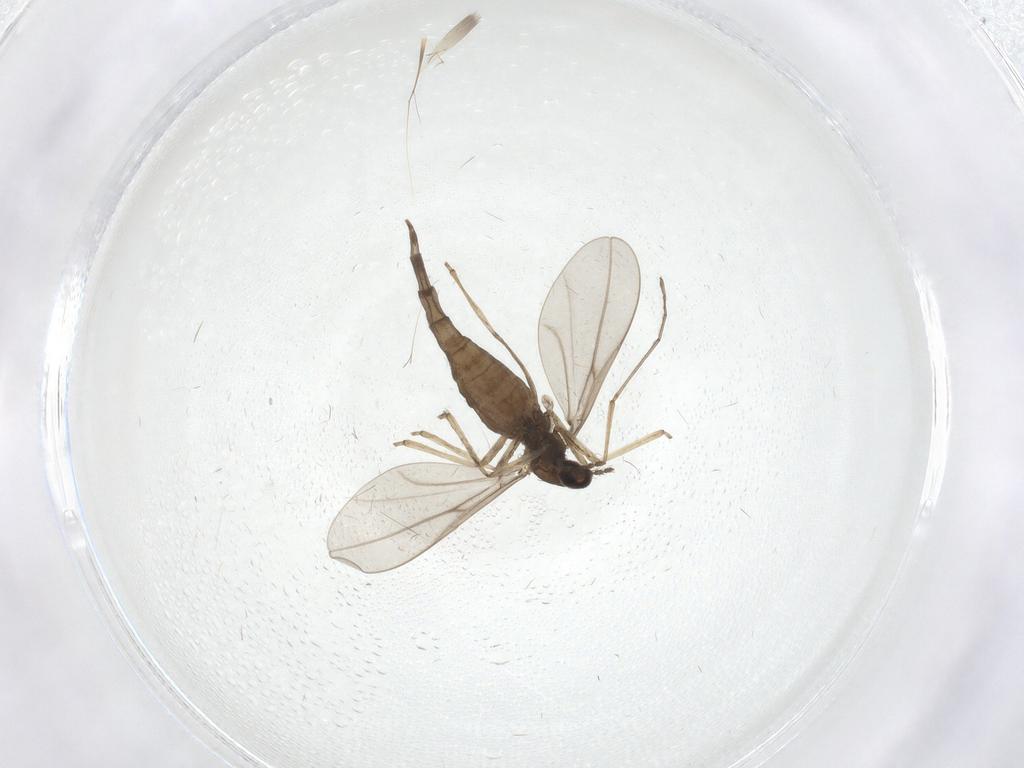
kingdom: Animalia
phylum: Arthropoda
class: Insecta
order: Diptera
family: Cecidomyiidae
